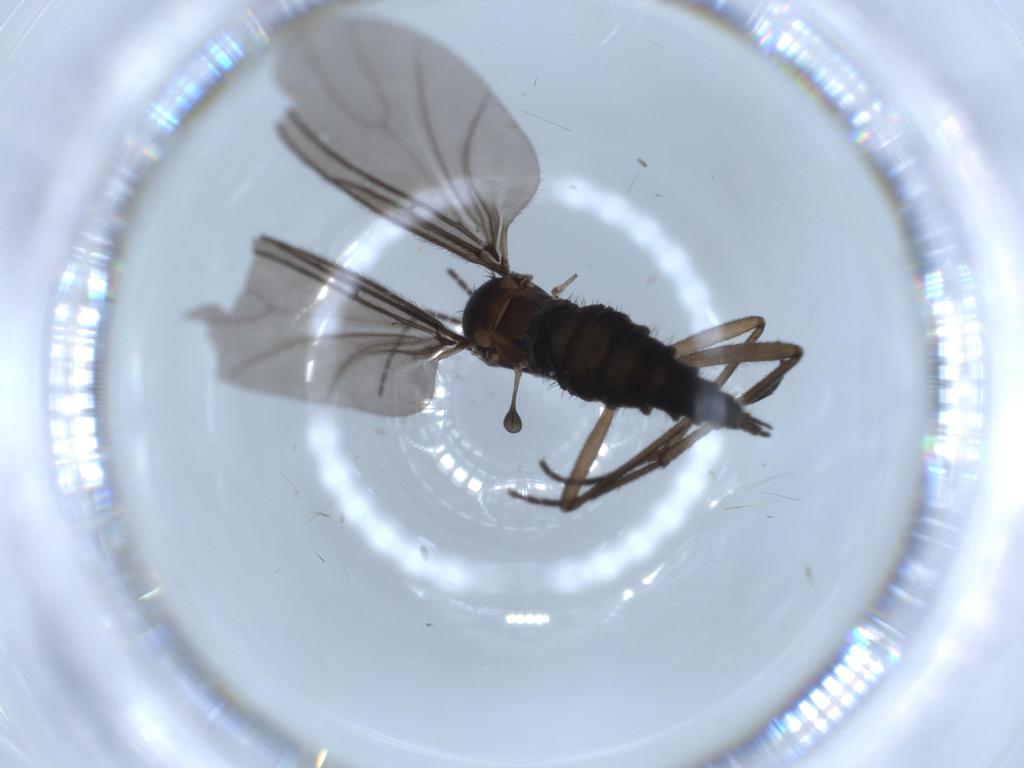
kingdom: Animalia
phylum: Arthropoda
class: Insecta
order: Diptera
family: Sciaridae
